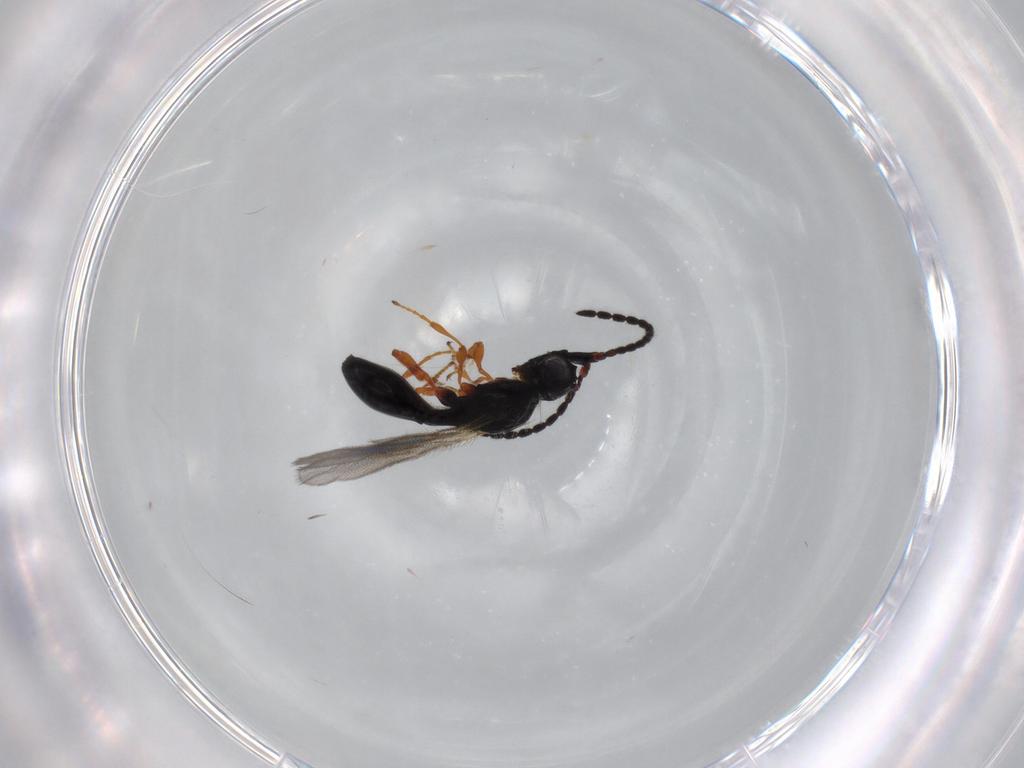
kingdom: Animalia
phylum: Arthropoda
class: Insecta
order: Hymenoptera
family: Diapriidae
